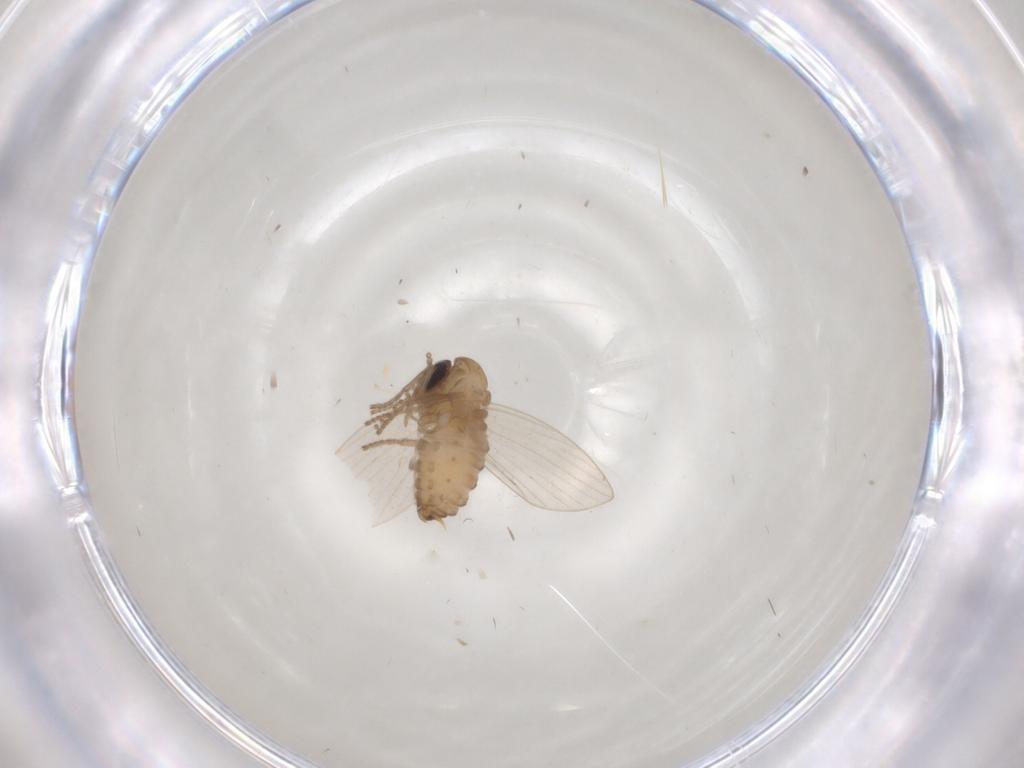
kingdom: Animalia
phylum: Arthropoda
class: Insecta
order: Diptera
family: Psychodidae
